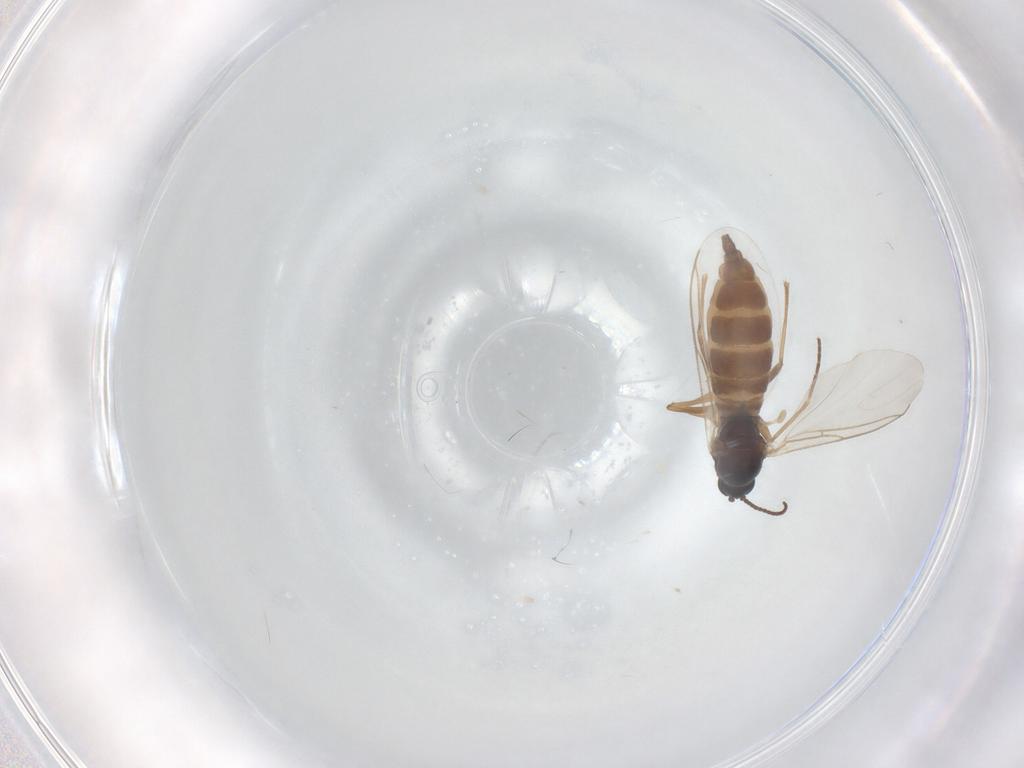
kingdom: Animalia
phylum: Arthropoda
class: Insecta
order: Diptera
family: Sciaridae
